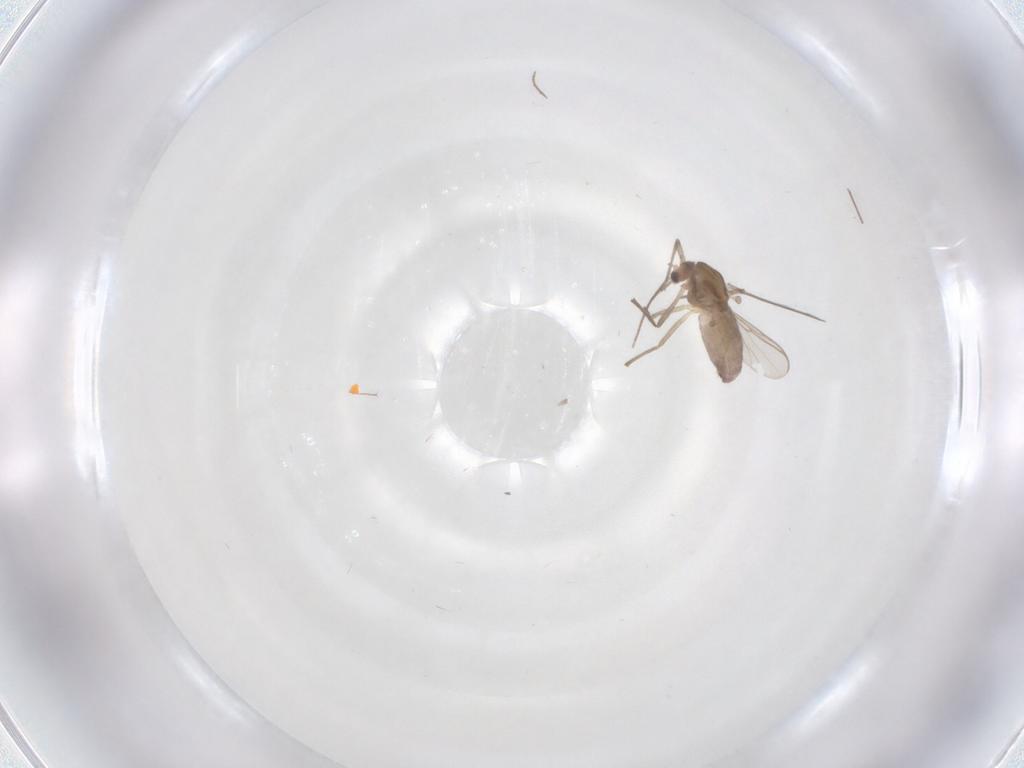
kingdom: Animalia
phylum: Arthropoda
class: Insecta
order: Diptera
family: Chironomidae
